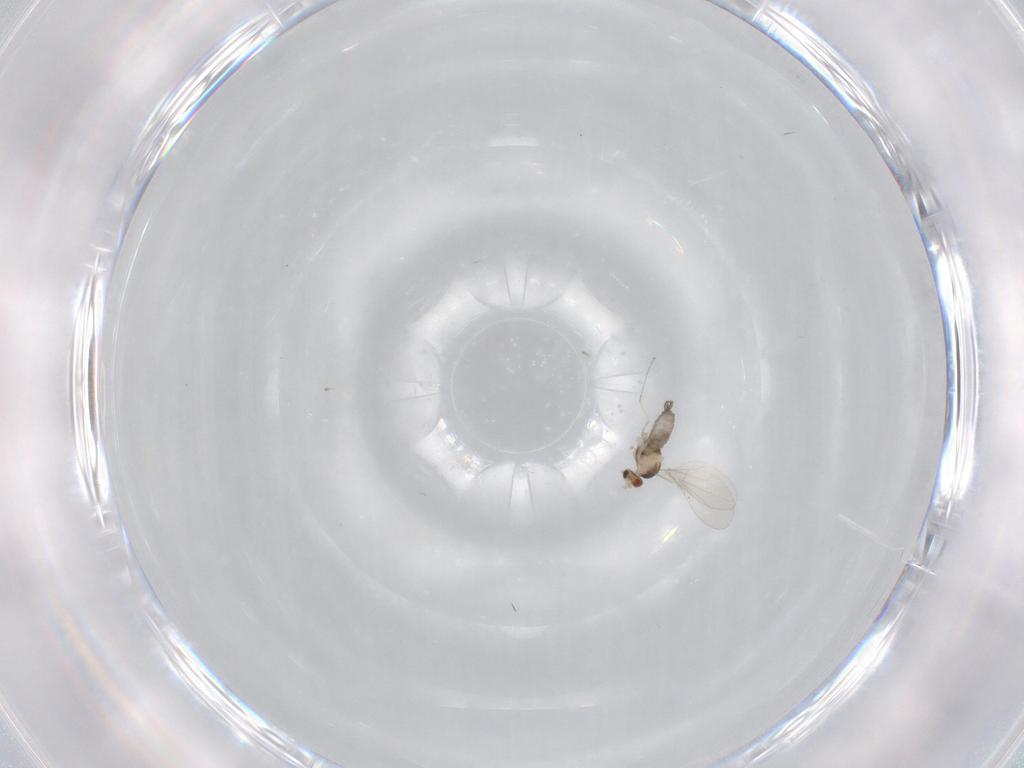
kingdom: Animalia
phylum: Arthropoda
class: Insecta
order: Diptera
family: Cecidomyiidae
